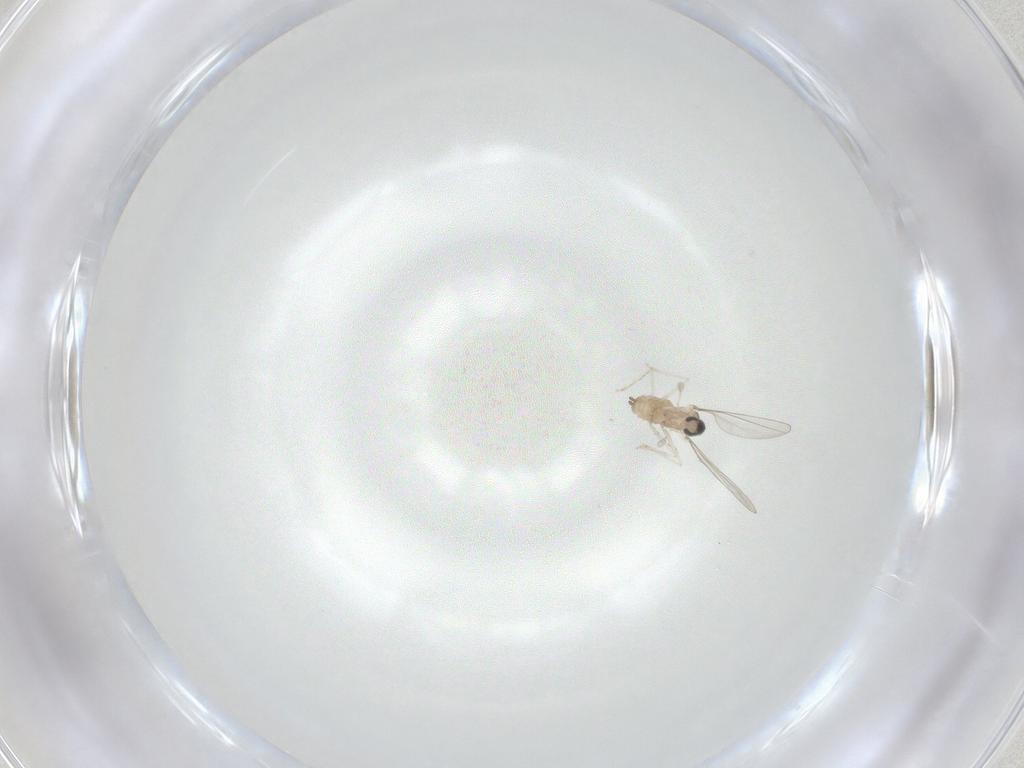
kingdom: Animalia
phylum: Arthropoda
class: Insecta
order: Diptera
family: Cecidomyiidae
